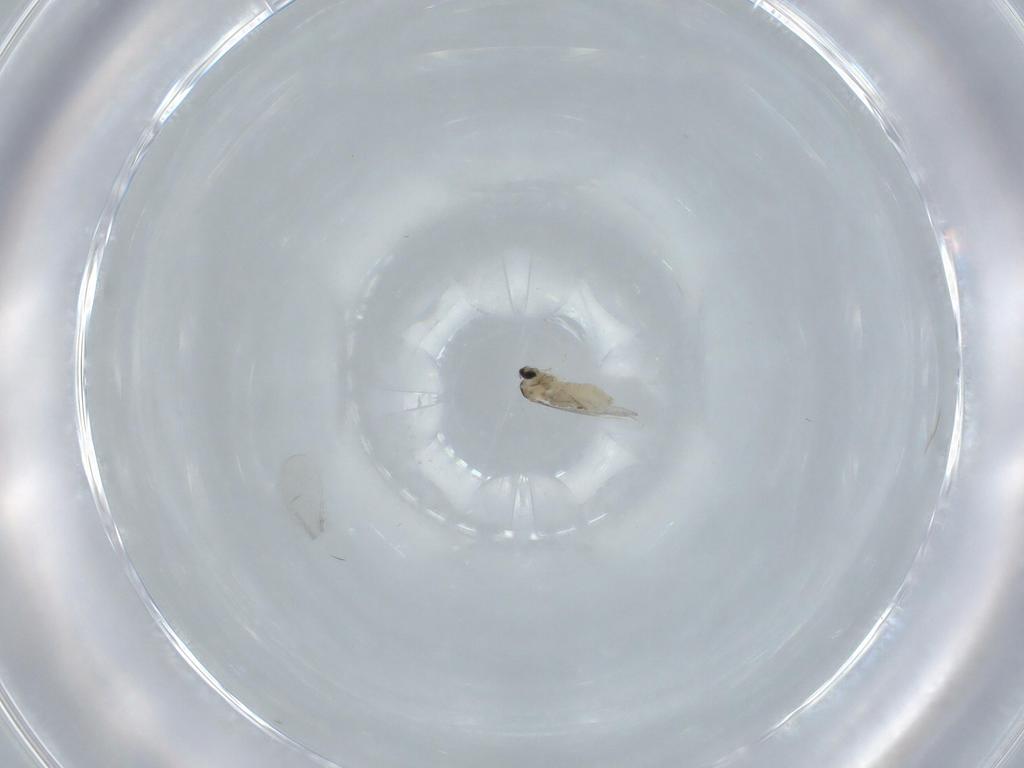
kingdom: Animalia
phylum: Arthropoda
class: Insecta
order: Diptera
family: Cecidomyiidae
